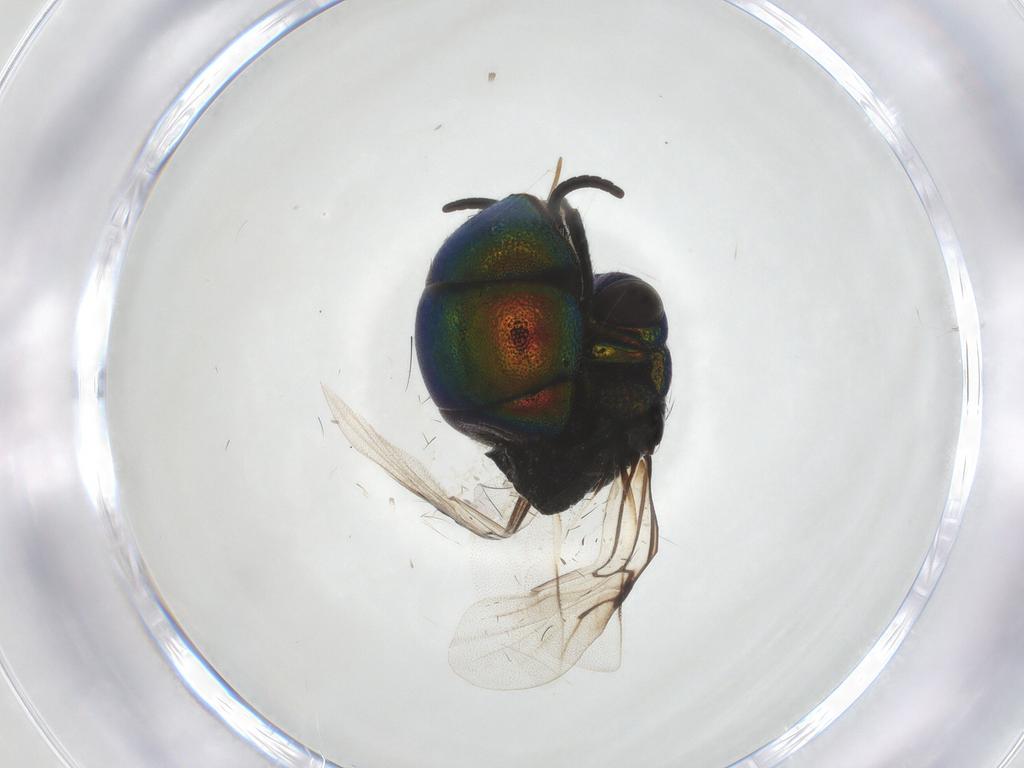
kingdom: Animalia
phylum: Arthropoda
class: Insecta
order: Hymenoptera
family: Chrysididae
